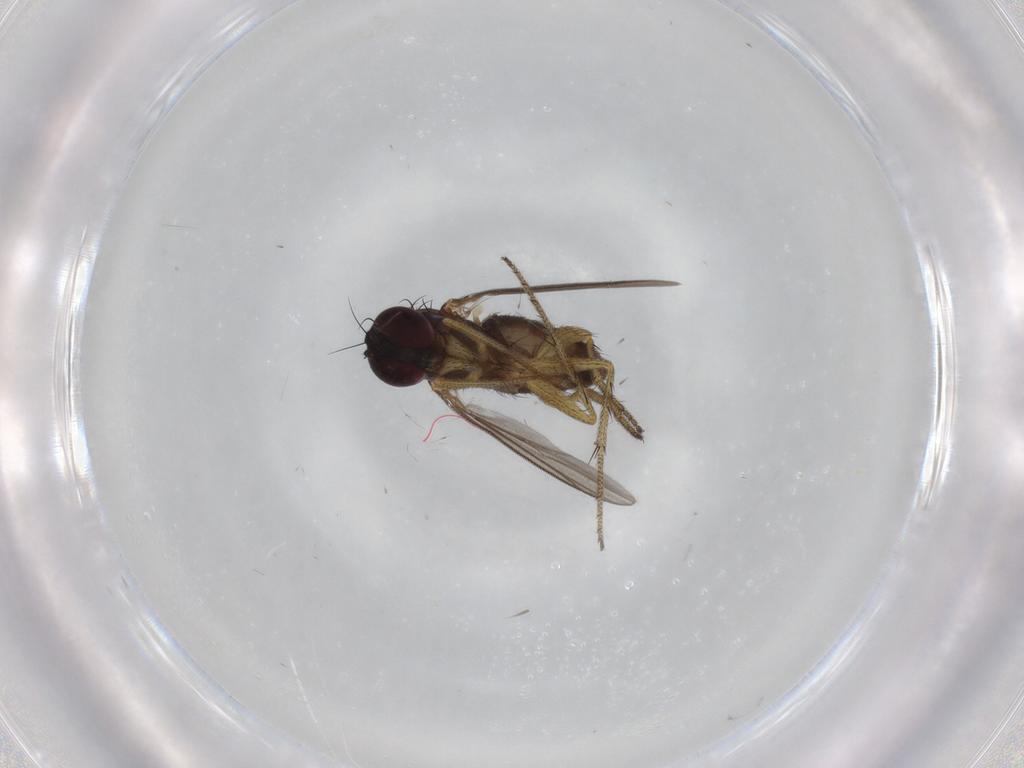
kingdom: Animalia
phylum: Arthropoda
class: Insecta
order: Diptera
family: Dolichopodidae
